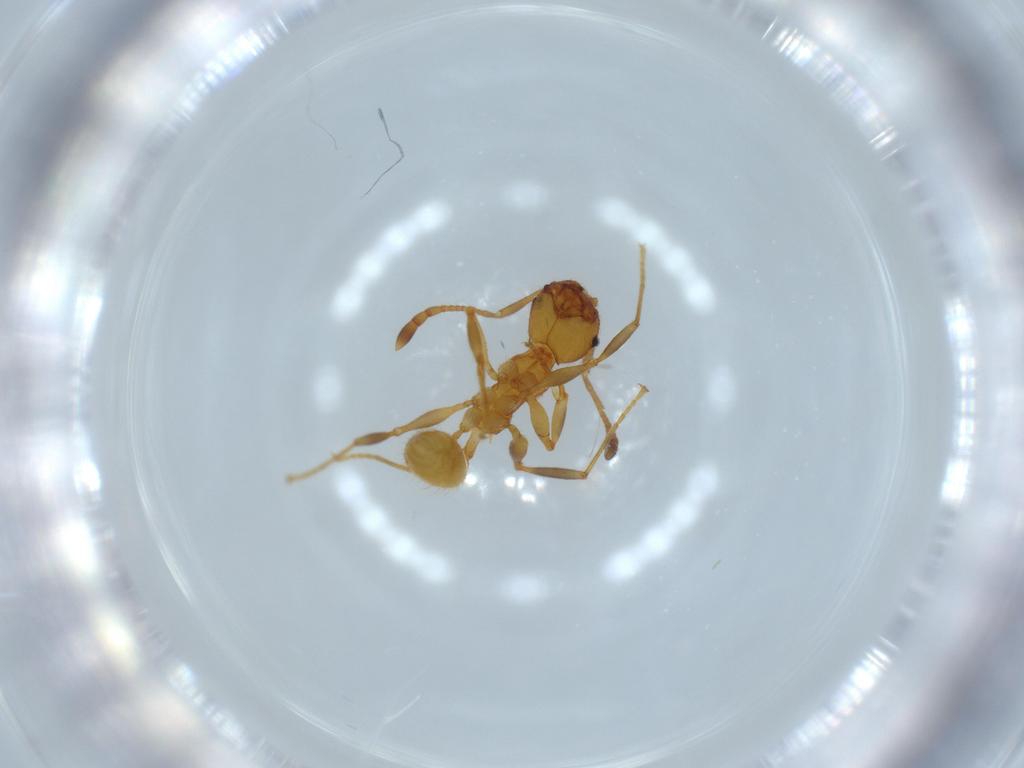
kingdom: Animalia
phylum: Arthropoda
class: Insecta
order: Hymenoptera
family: Formicidae
